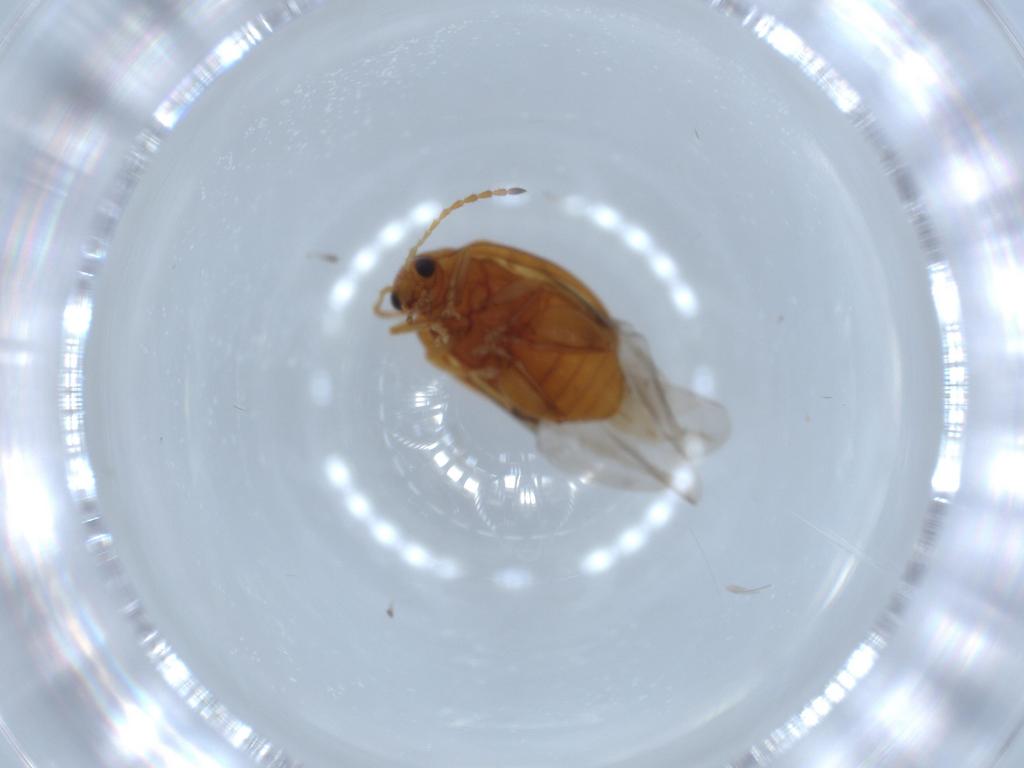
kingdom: Animalia
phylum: Arthropoda
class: Insecta
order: Coleoptera
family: Chrysomelidae
